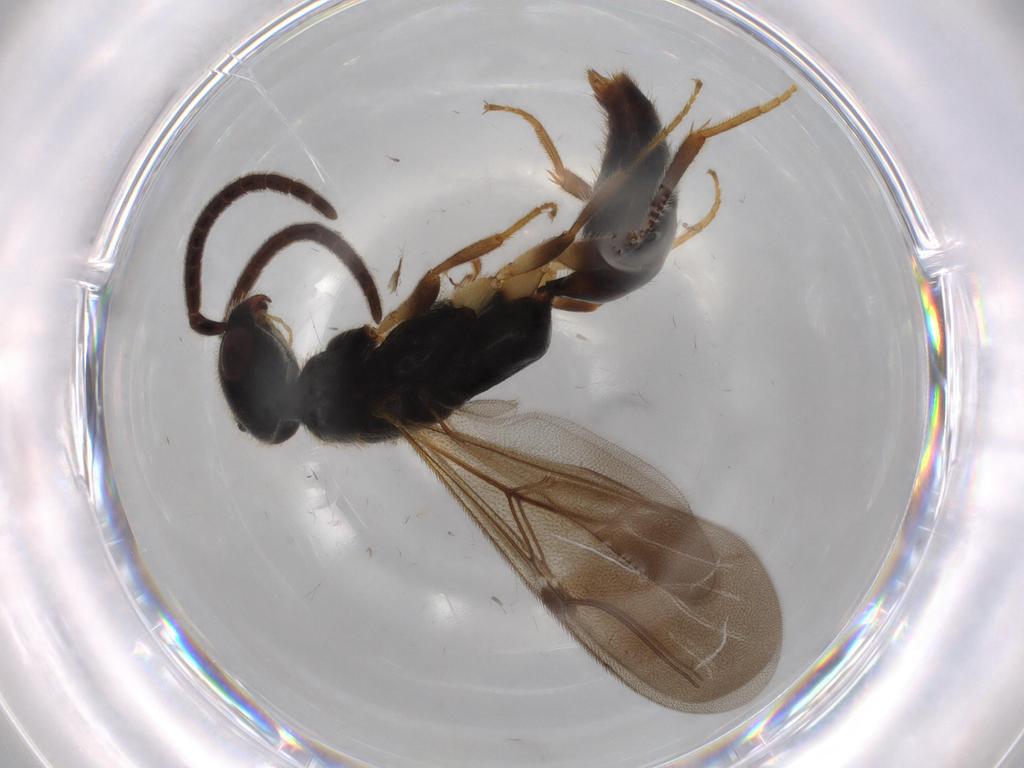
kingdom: Animalia
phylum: Arthropoda
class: Insecta
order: Hymenoptera
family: Bethylidae
